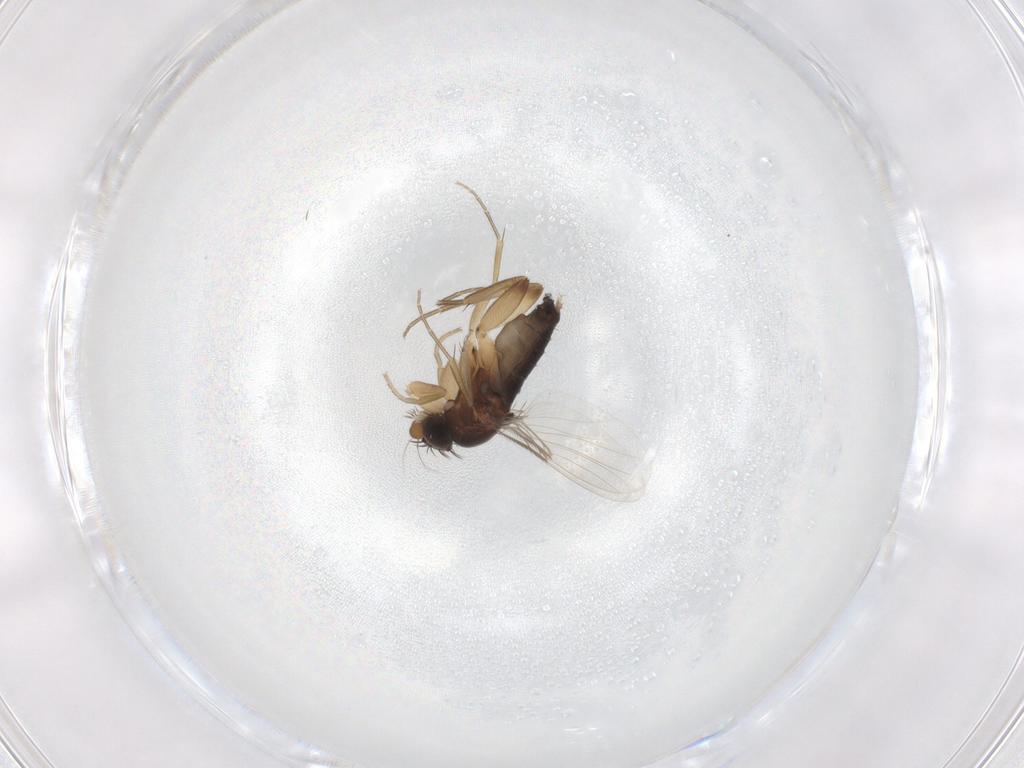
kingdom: Animalia
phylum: Arthropoda
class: Insecta
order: Diptera
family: Phoridae
